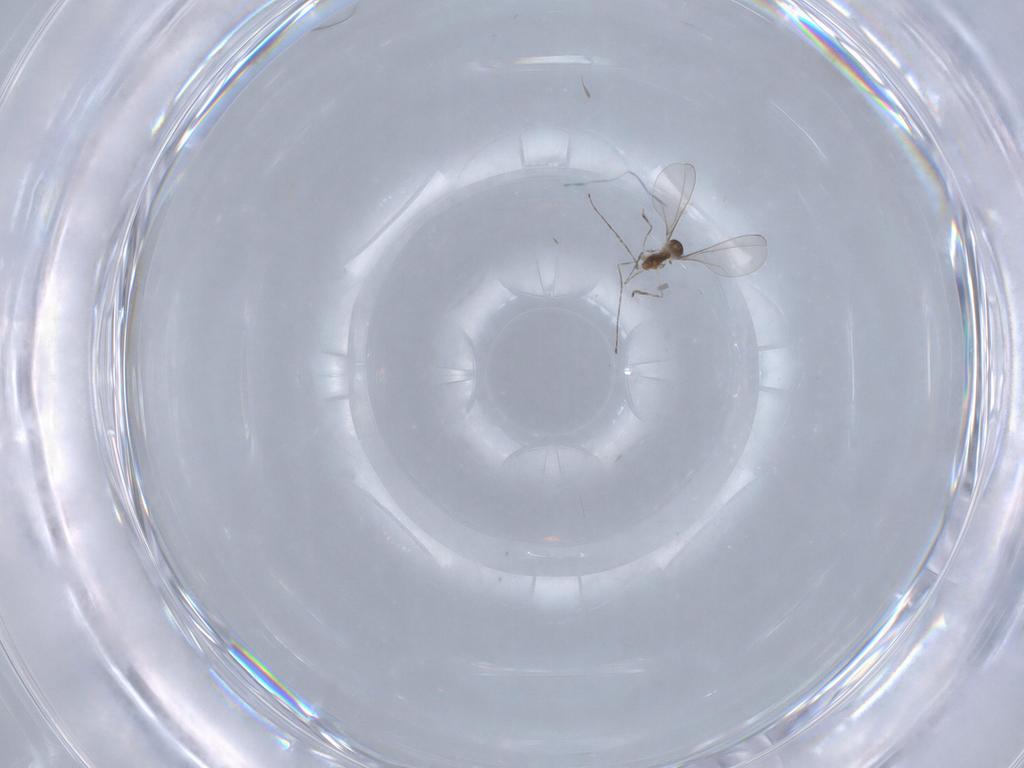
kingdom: Animalia
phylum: Arthropoda
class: Insecta
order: Diptera
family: Cecidomyiidae
